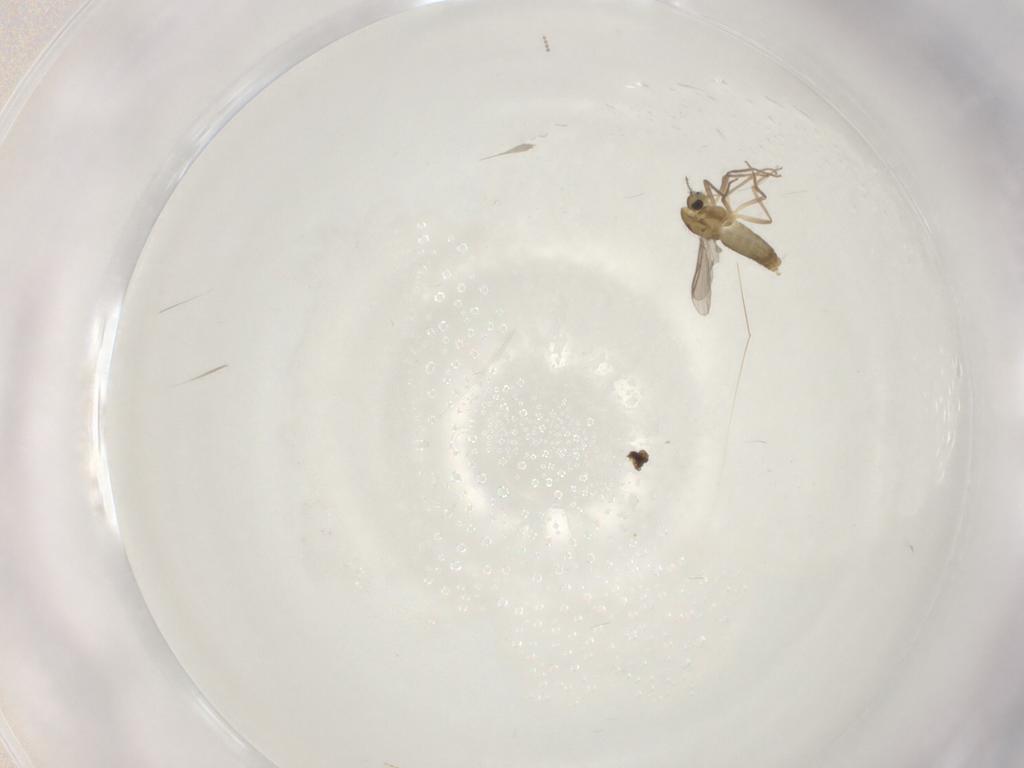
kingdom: Animalia
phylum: Arthropoda
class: Insecta
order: Diptera
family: Chironomidae
